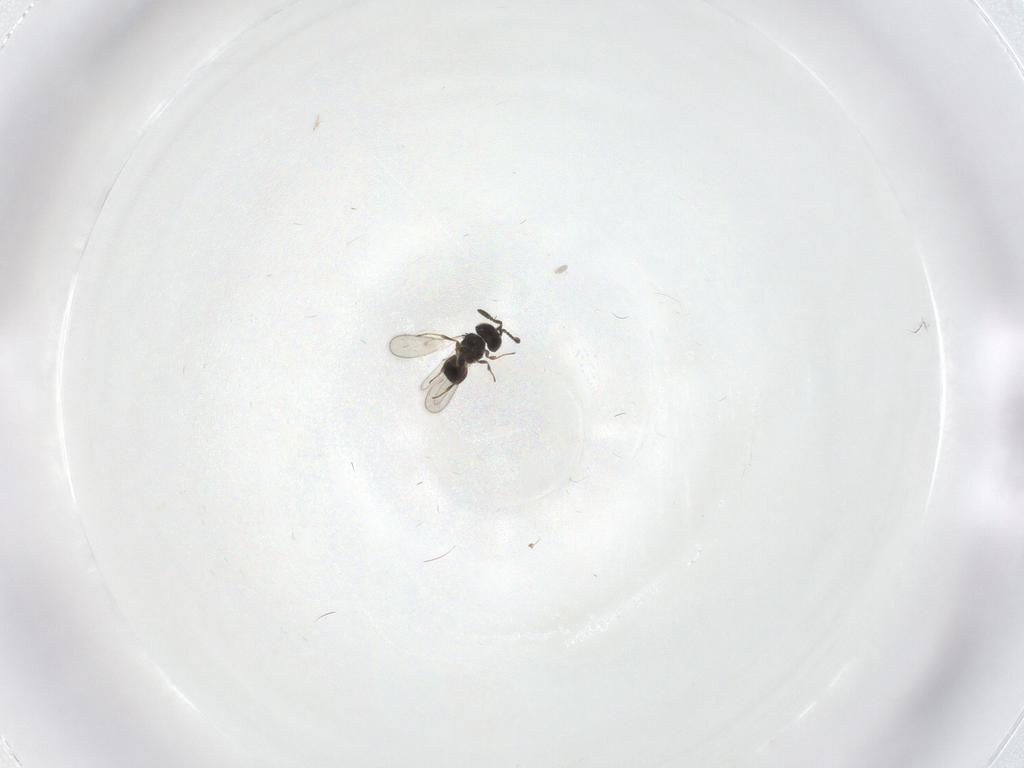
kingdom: Animalia
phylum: Arthropoda
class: Insecta
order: Hymenoptera
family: Scelionidae
